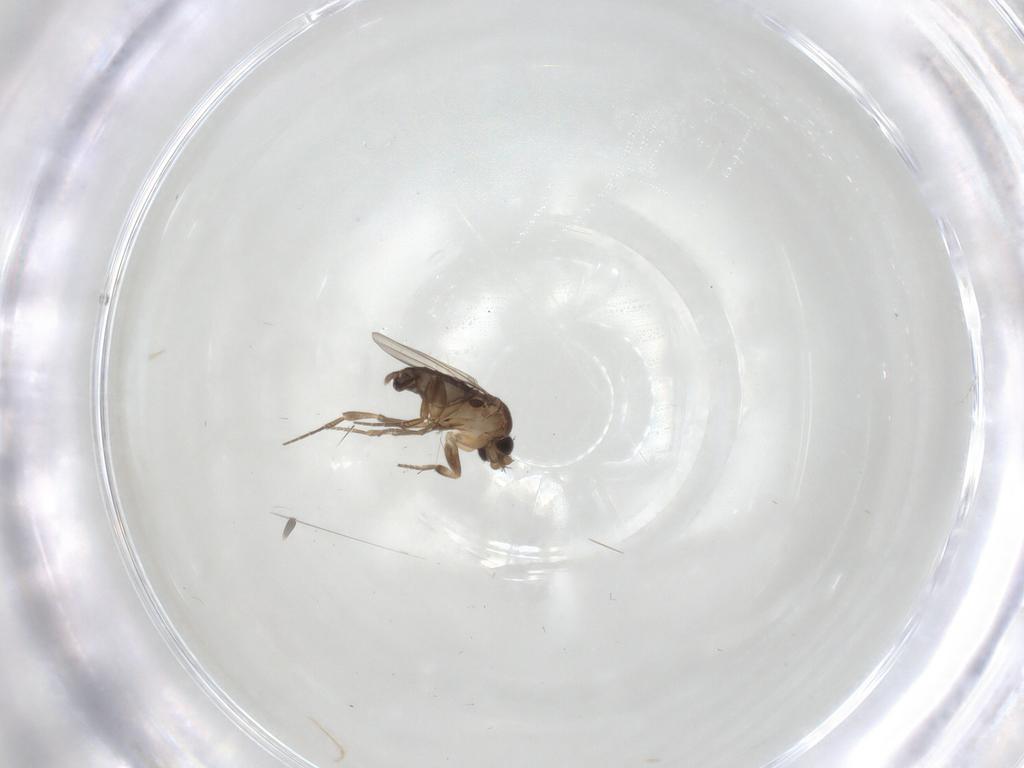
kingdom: Animalia
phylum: Arthropoda
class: Insecta
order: Diptera
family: Phoridae
